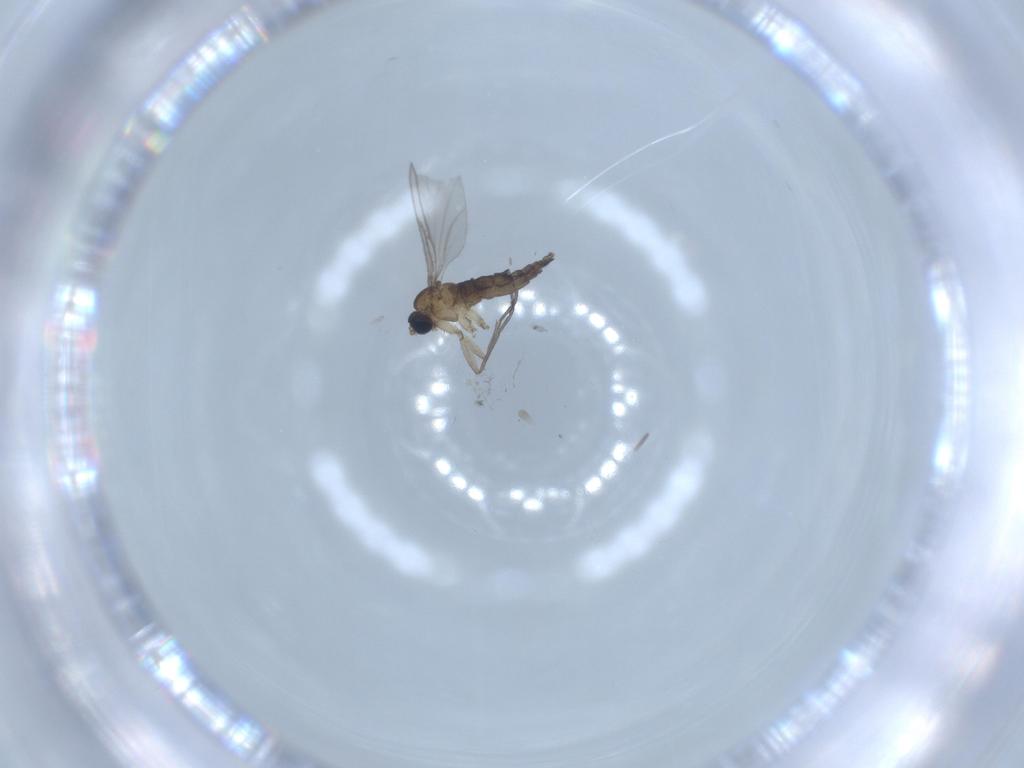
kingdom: Animalia
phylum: Arthropoda
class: Insecta
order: Diptera
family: Sciaridae
